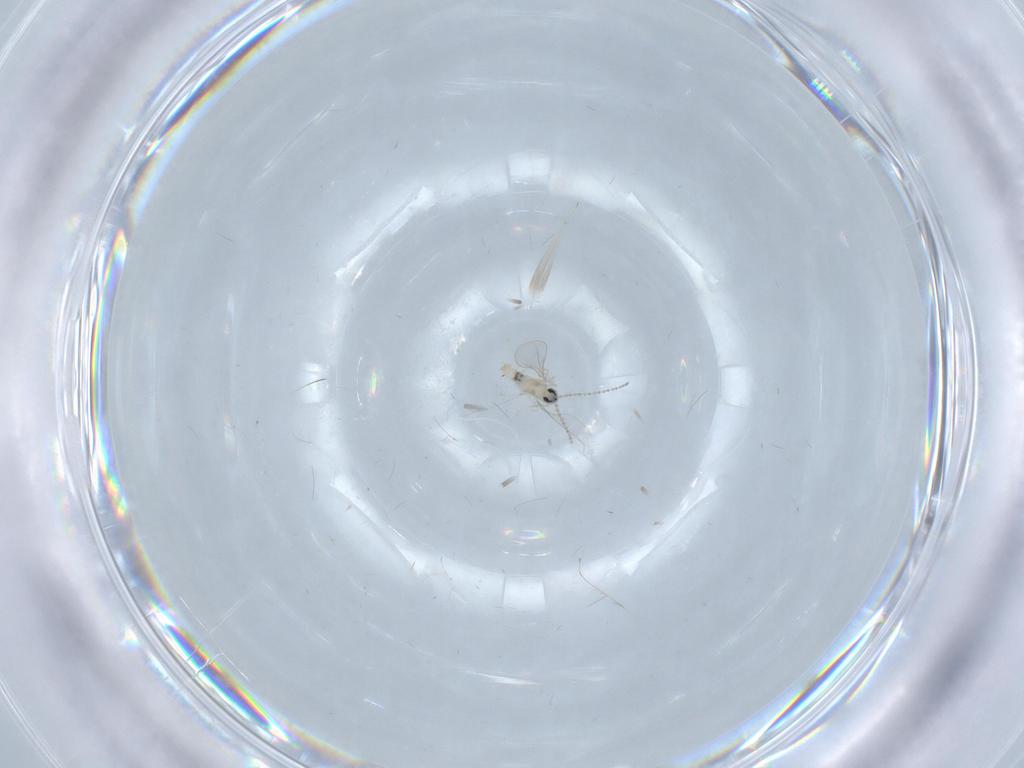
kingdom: Animalia
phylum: Arthropoda
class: Insecta
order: Diptera
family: Cecidomyiidae
